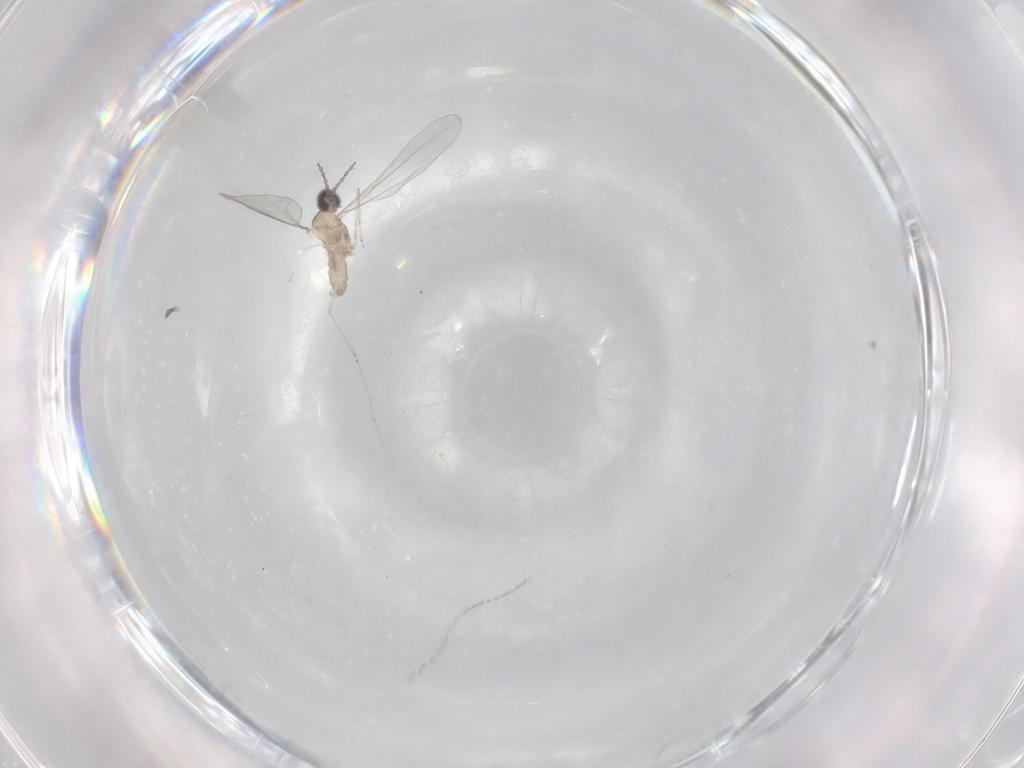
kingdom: Animalia
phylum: Arthropoda
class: Insecta
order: Diptera
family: Cecidomyiidae
